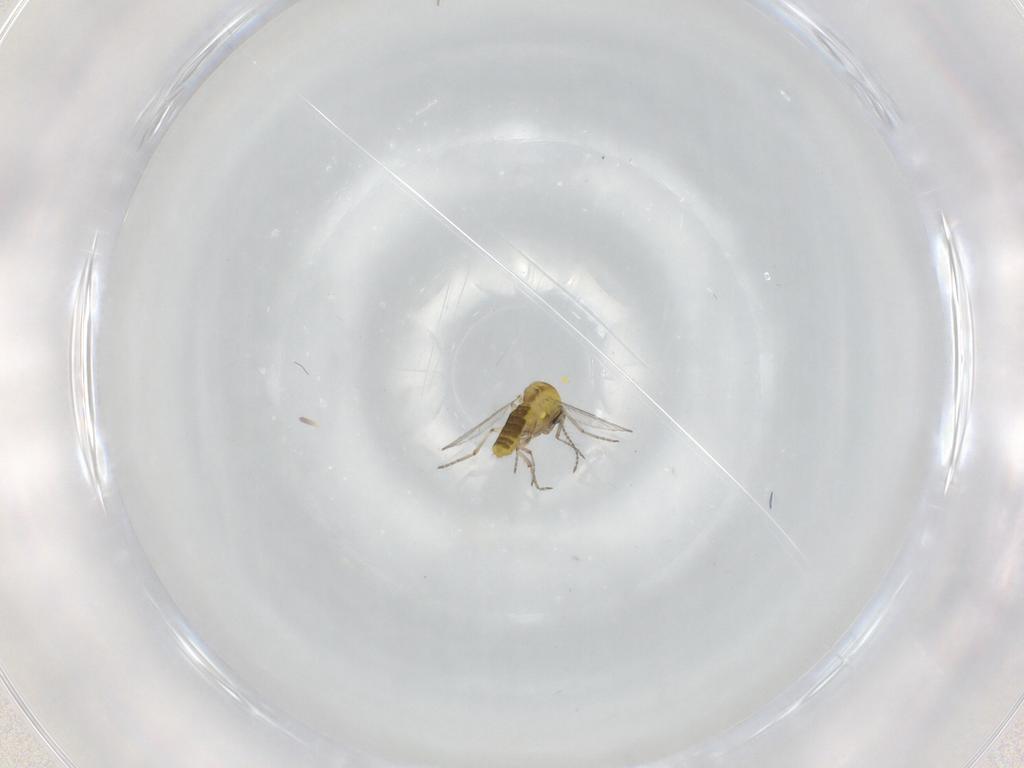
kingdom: Animalia
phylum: Arthropoda
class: Insecta
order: Diptera
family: Ceratopogonidae
